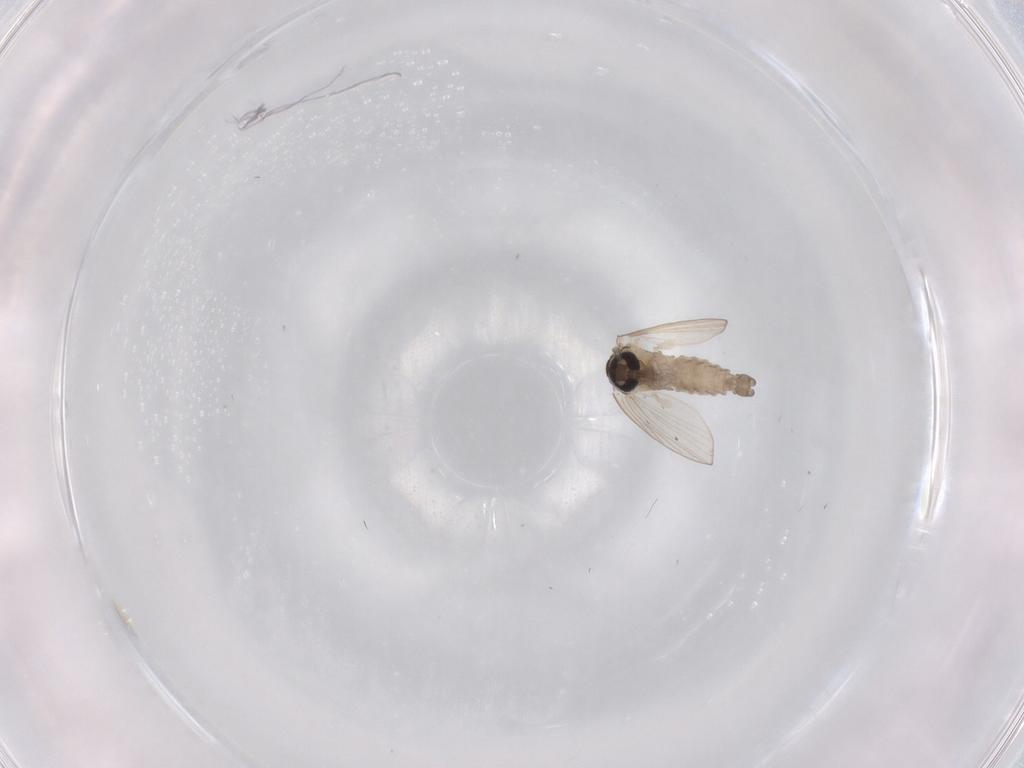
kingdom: Animalia
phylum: Arthropoda
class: Insecta
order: Diptera
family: Psychodidae
